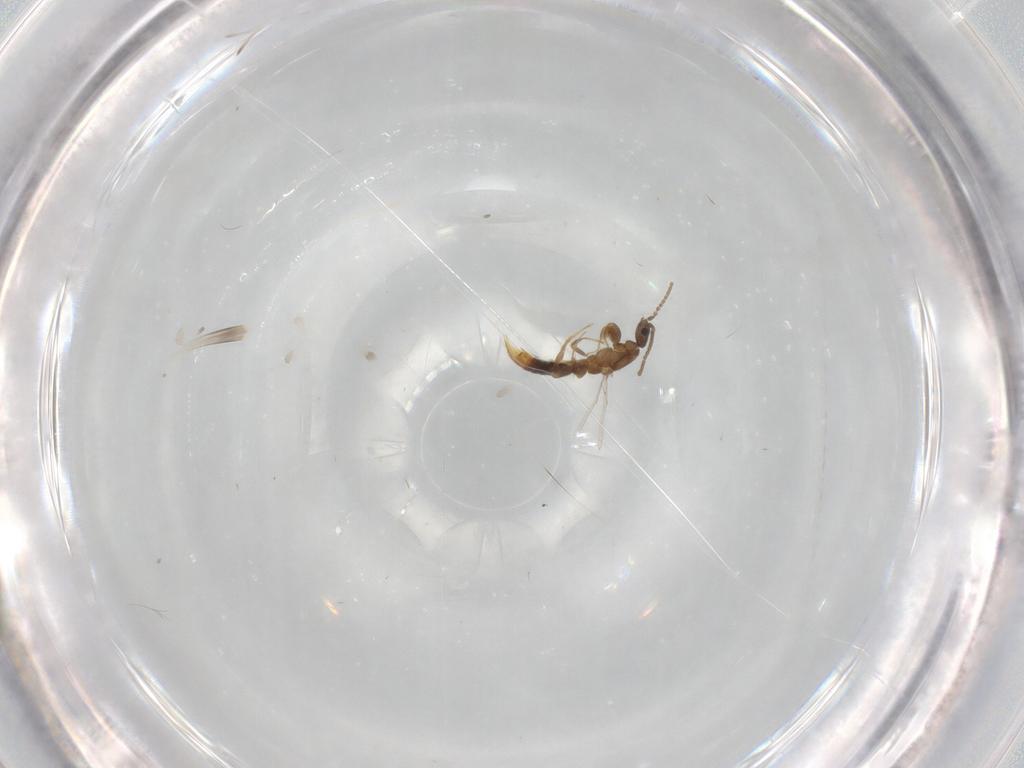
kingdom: Animalia
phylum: Arthropoda
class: Insecta
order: Hymenoptera
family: Formicidae
